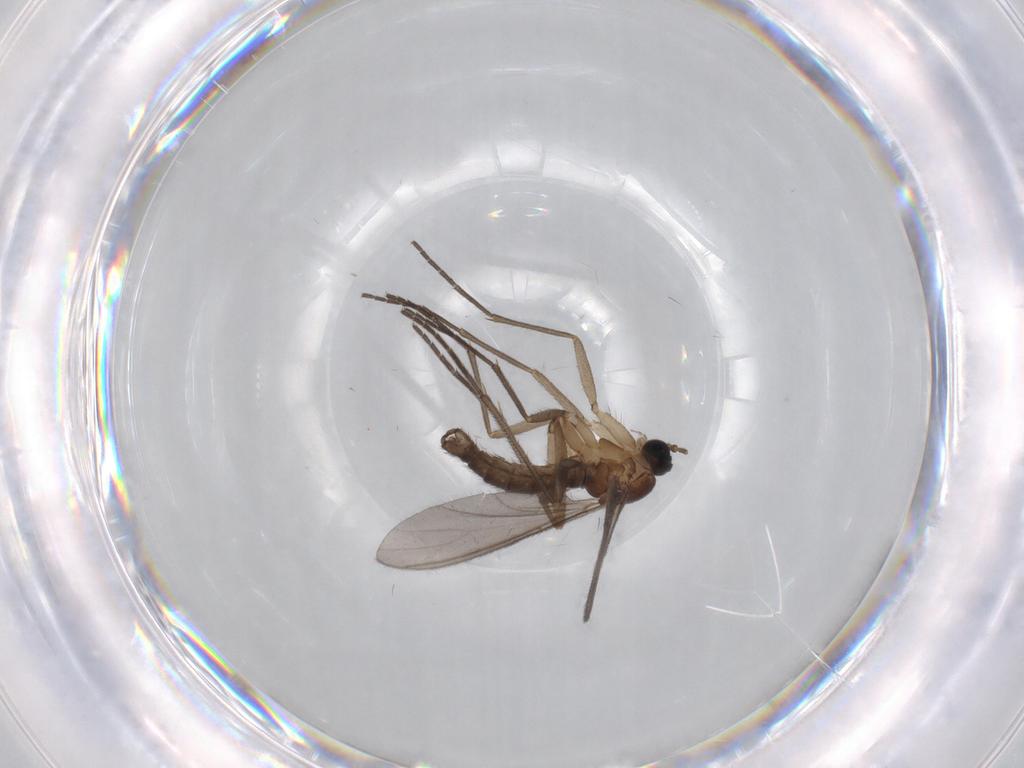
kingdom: Animalia
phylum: Arthropoda
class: Insecta
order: Diptera
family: Sciaridae
